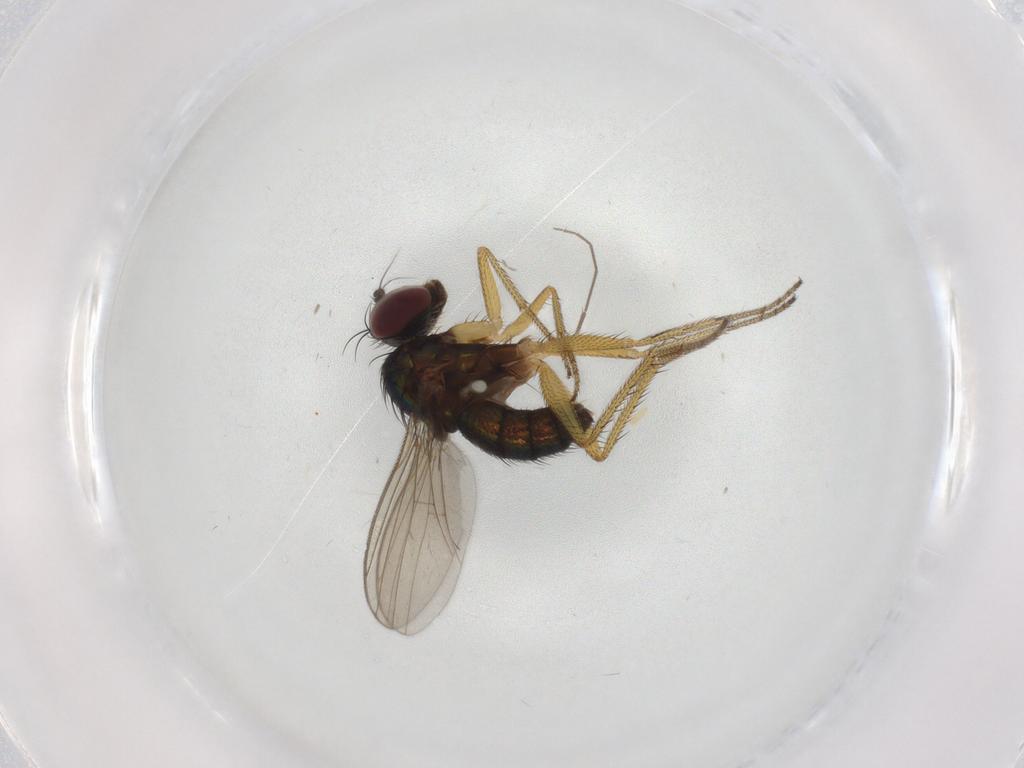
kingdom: Animalia
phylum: Arthropoda
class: Insecta
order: Diptera
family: Dolichopodidae
